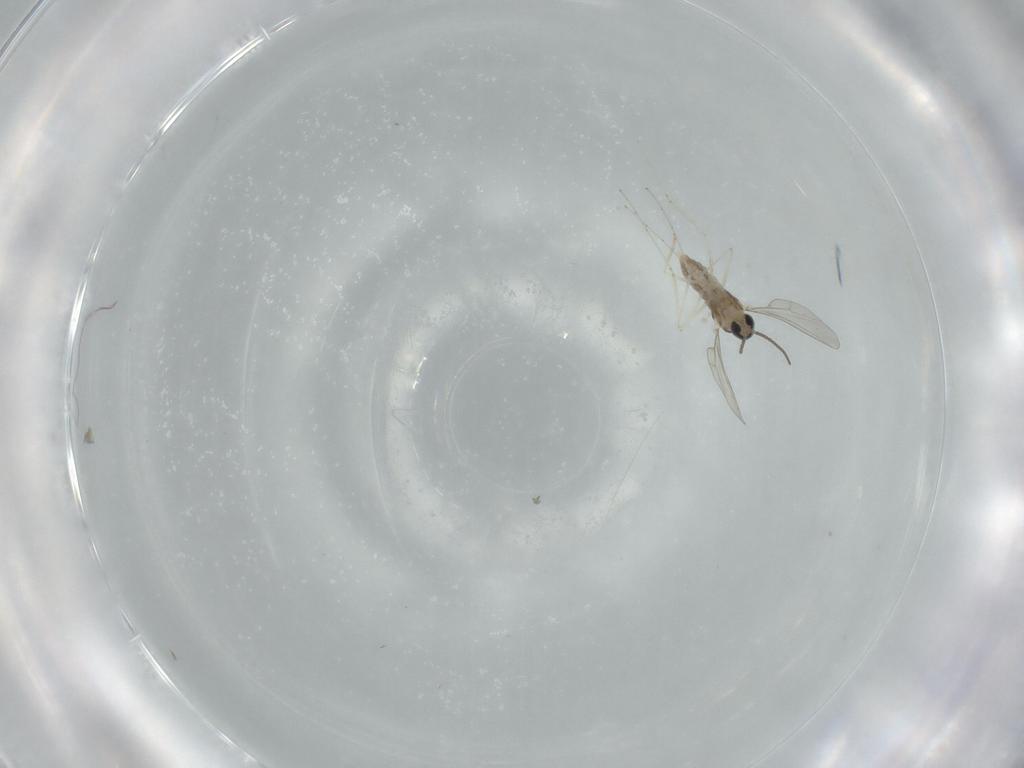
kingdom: Animalia
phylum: Arthropoda
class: Insecta
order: Diptera
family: Cecidomyiidae
